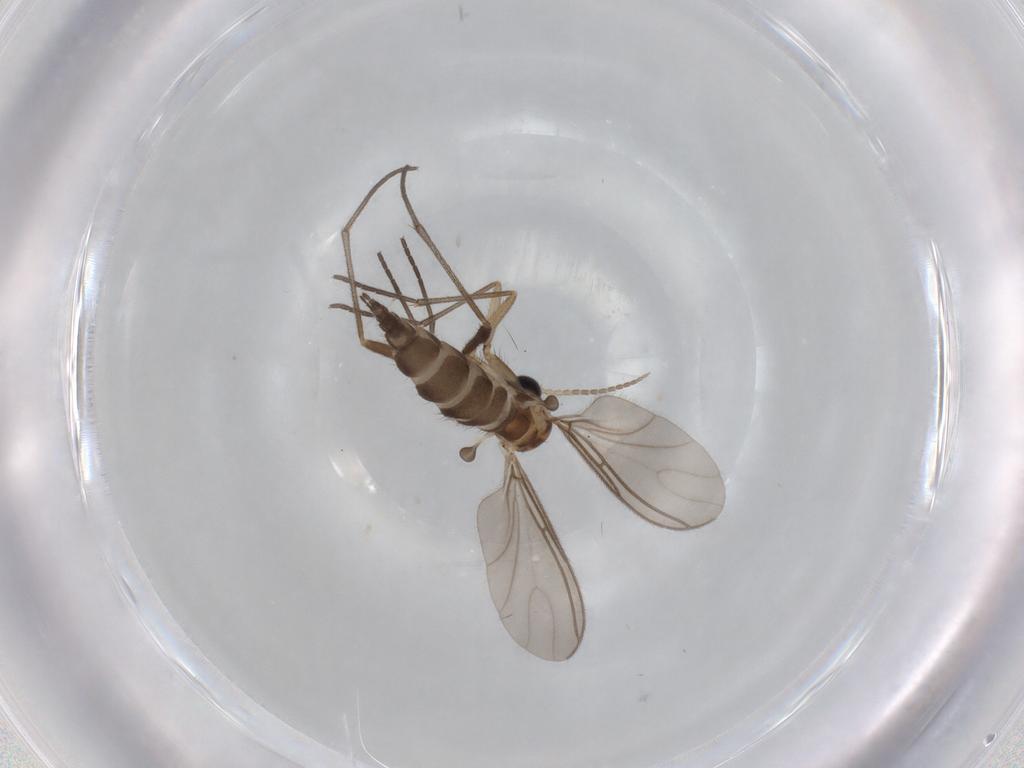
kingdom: Animalia
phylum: Arthropoda
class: Insecta
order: Diptera
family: Sciaridae
